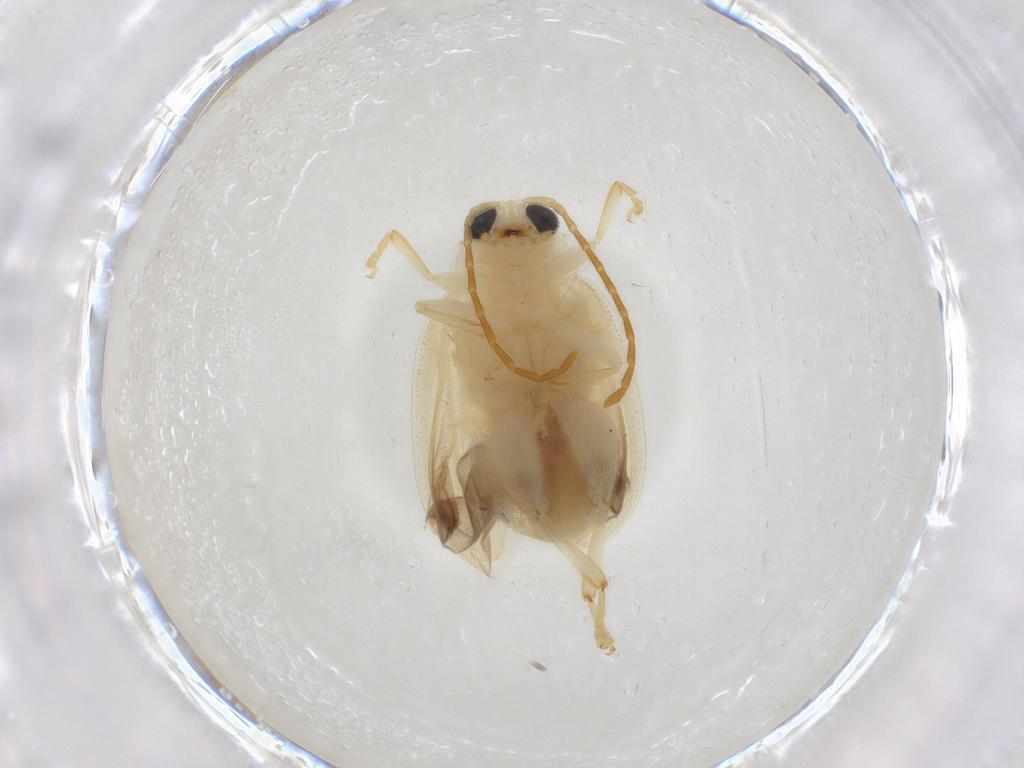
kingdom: Animalia
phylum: Arthropoda
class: Insecta
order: Coleoptera
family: Chrysomelidae
